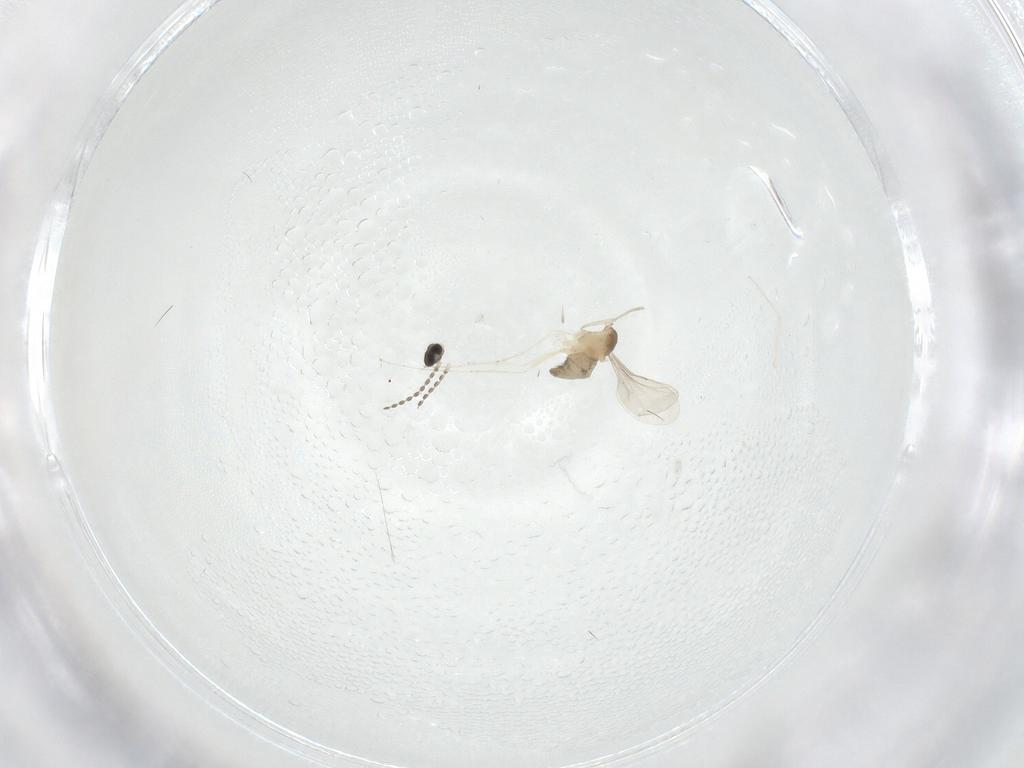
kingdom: Animalia
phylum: Arthropoda
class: Insecta
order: Diptera
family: Cecidomyiidae
